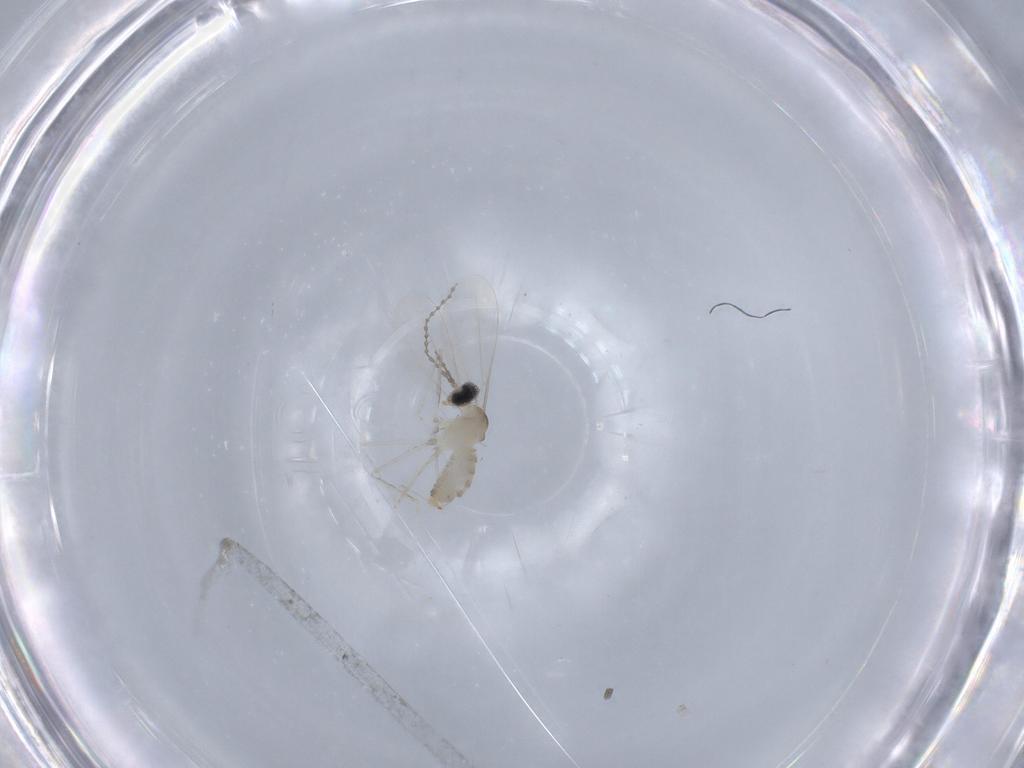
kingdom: Animalia
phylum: Arthropoda
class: Insecta
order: Diptera
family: Cecidomyiidae
